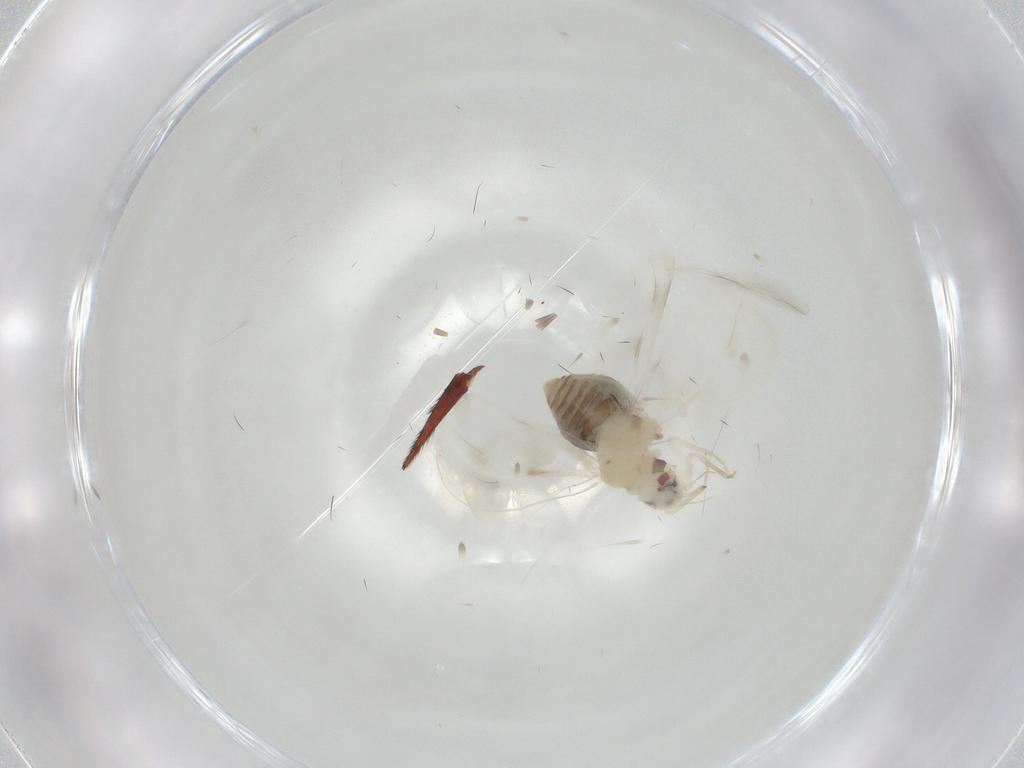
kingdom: Animalia
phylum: Arthropoda
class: Insecta
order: Hemiptera
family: Aleyrodidae
